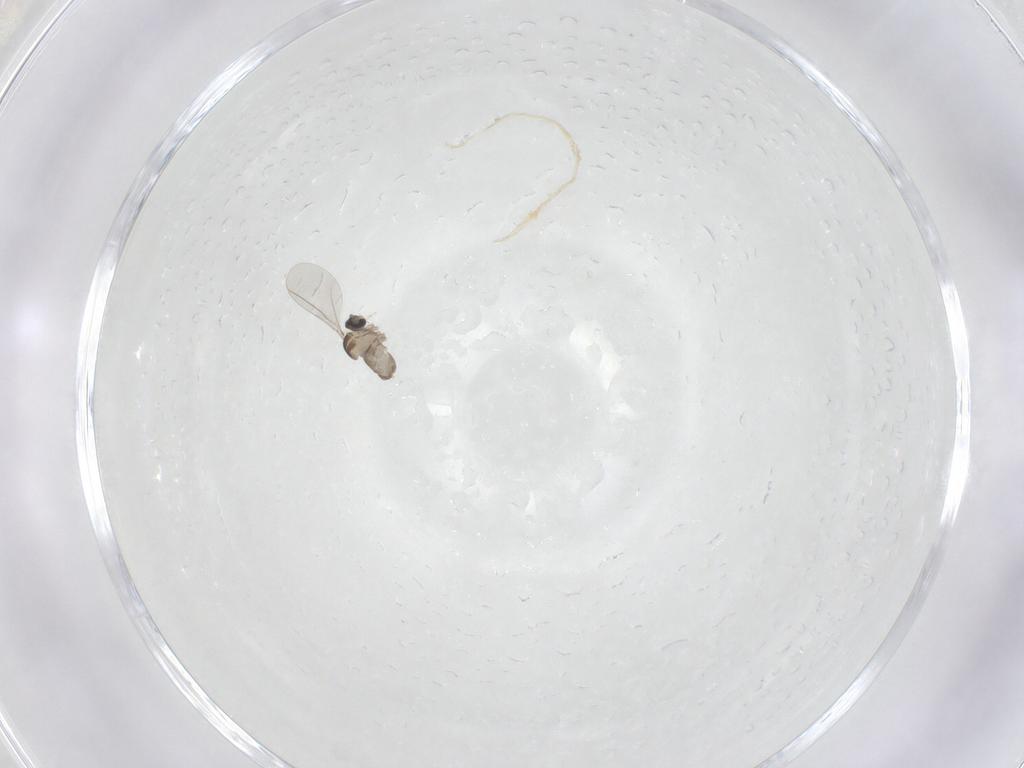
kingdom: Animalia
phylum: Arthropoda
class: Insecta
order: Diptera
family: Cecidomyiidae
